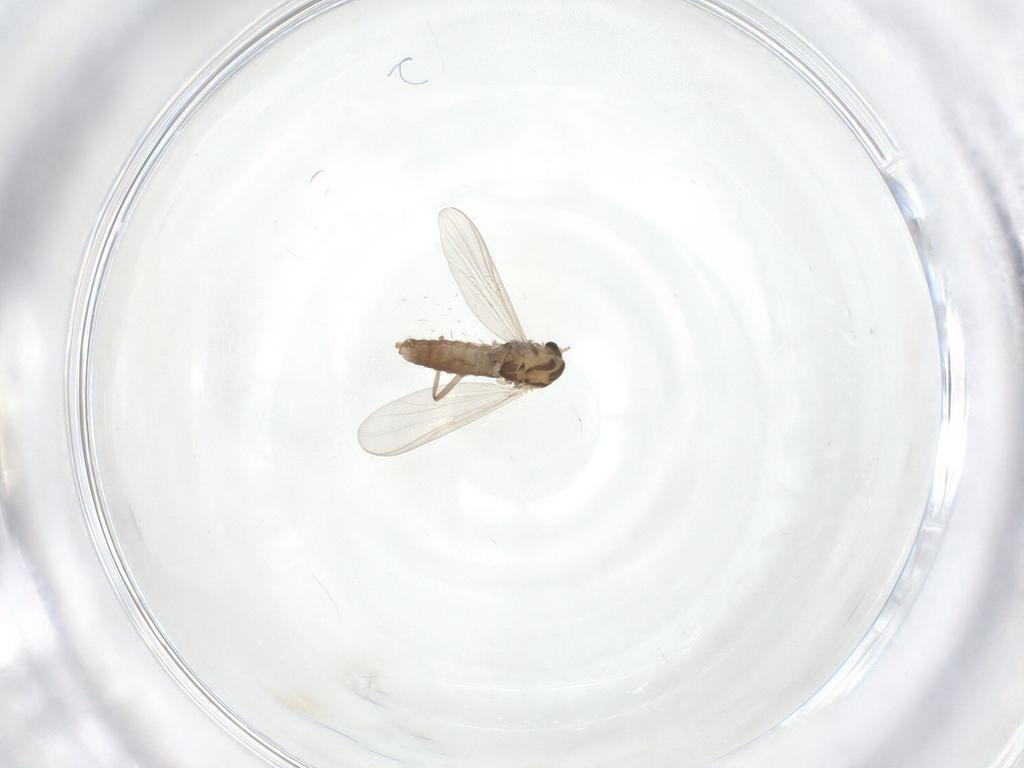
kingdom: Animalia
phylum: Arthropoda
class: Insecta
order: Diptera
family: Chironomidae
